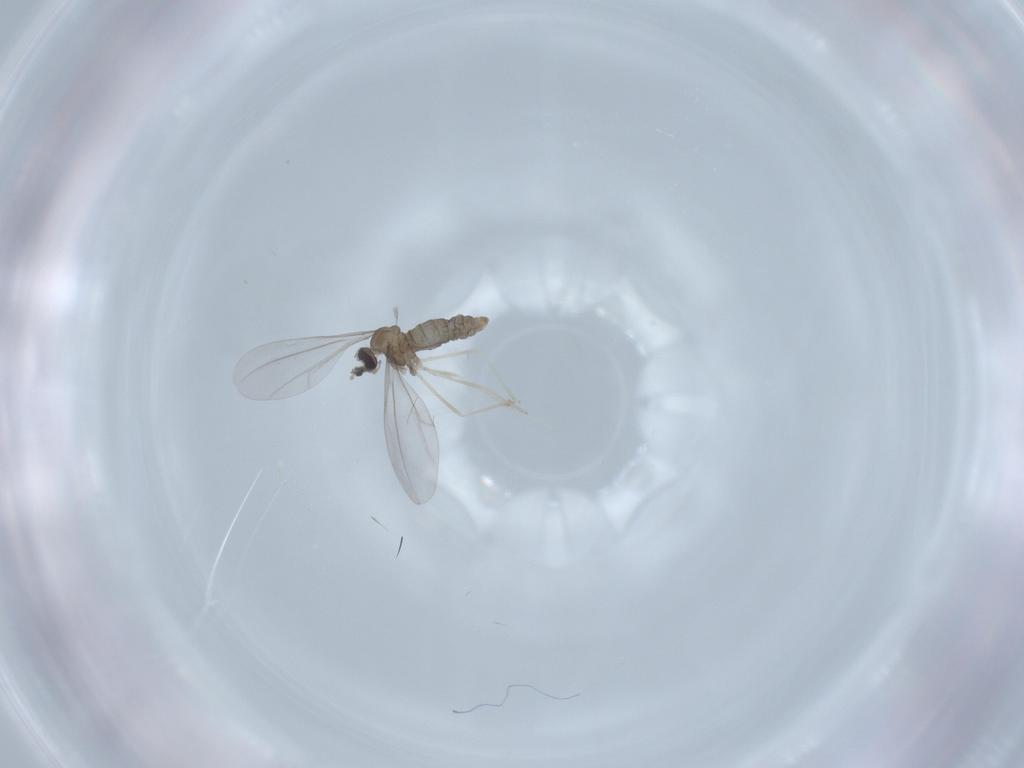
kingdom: Animalia
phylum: Arthropoda
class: Insecta
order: Diptera
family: Cecidomyiidae
